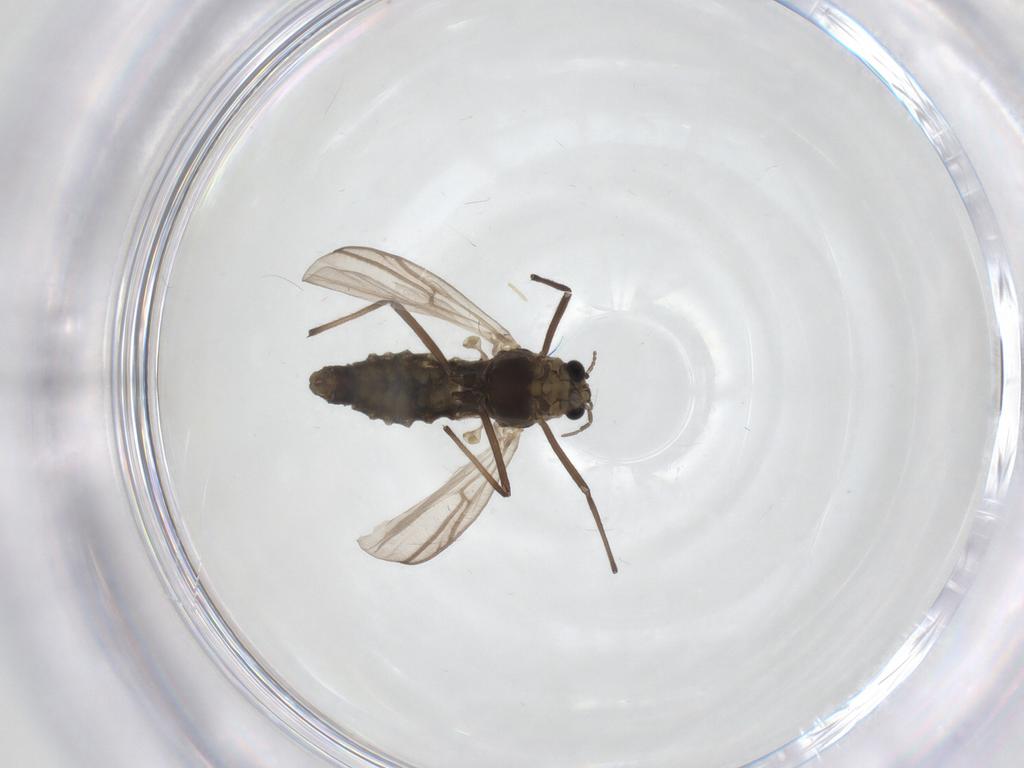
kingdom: Animalia
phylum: Arthropoda
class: Insecta
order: Diptera
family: Chironomidae
